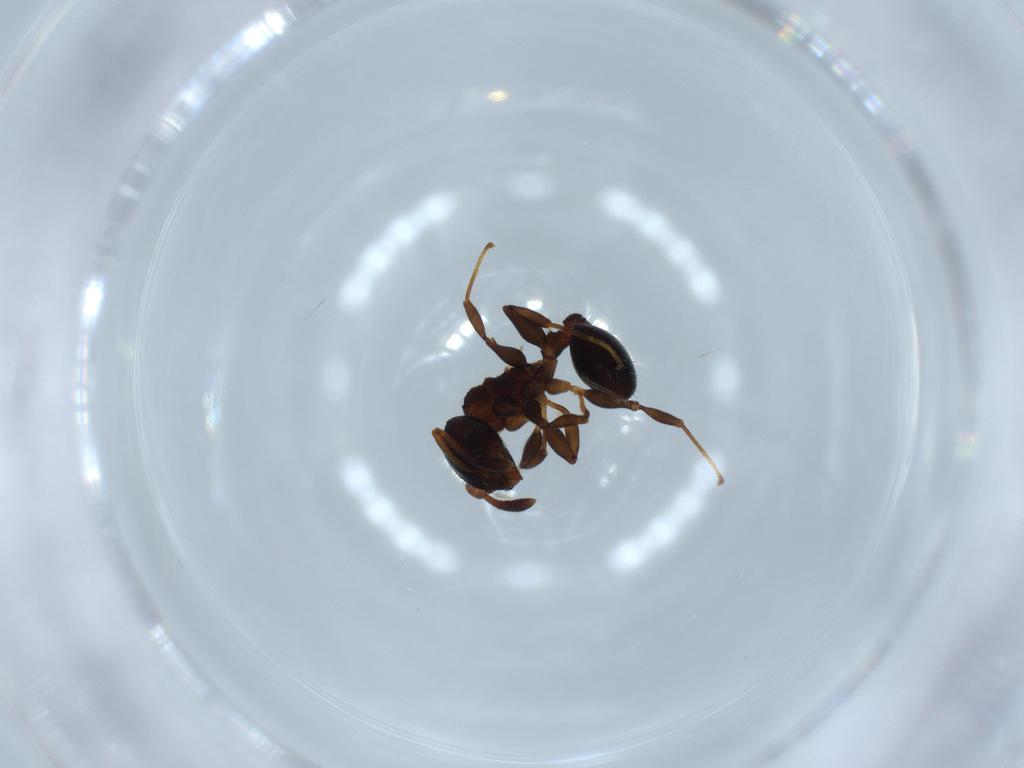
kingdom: Animalia
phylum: Arthropoda
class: Insecta
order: Hymenoptera
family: Formicidae
